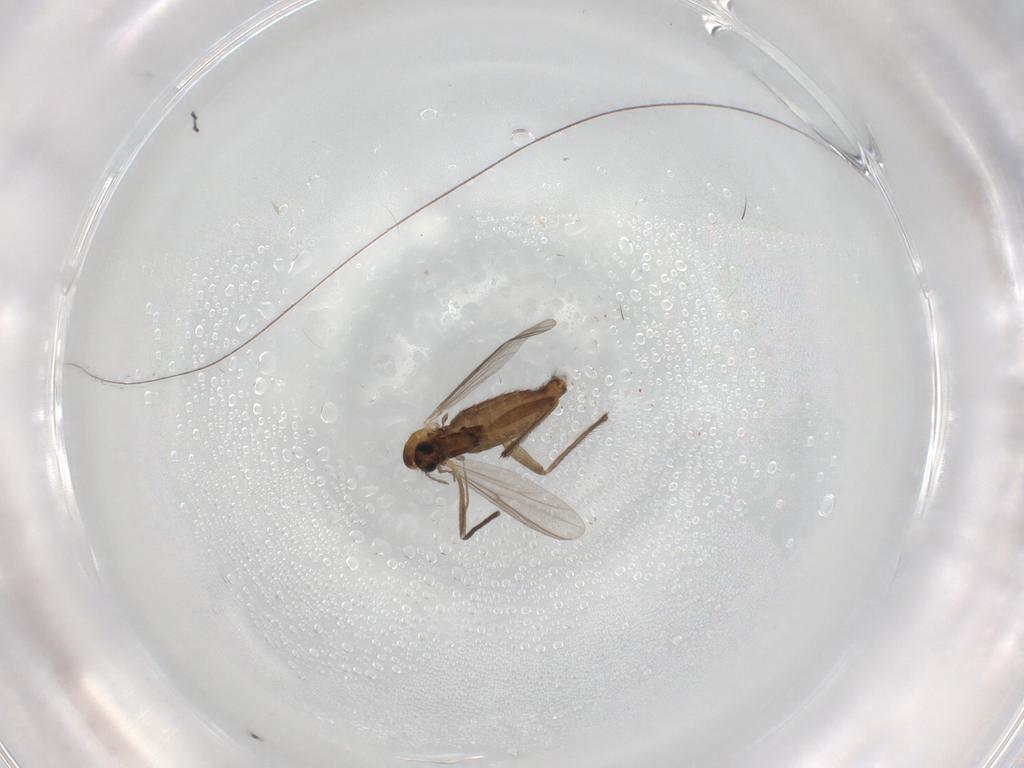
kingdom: Animalia
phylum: Arthropoda
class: Insecta
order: Diptera
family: Chironomidae
